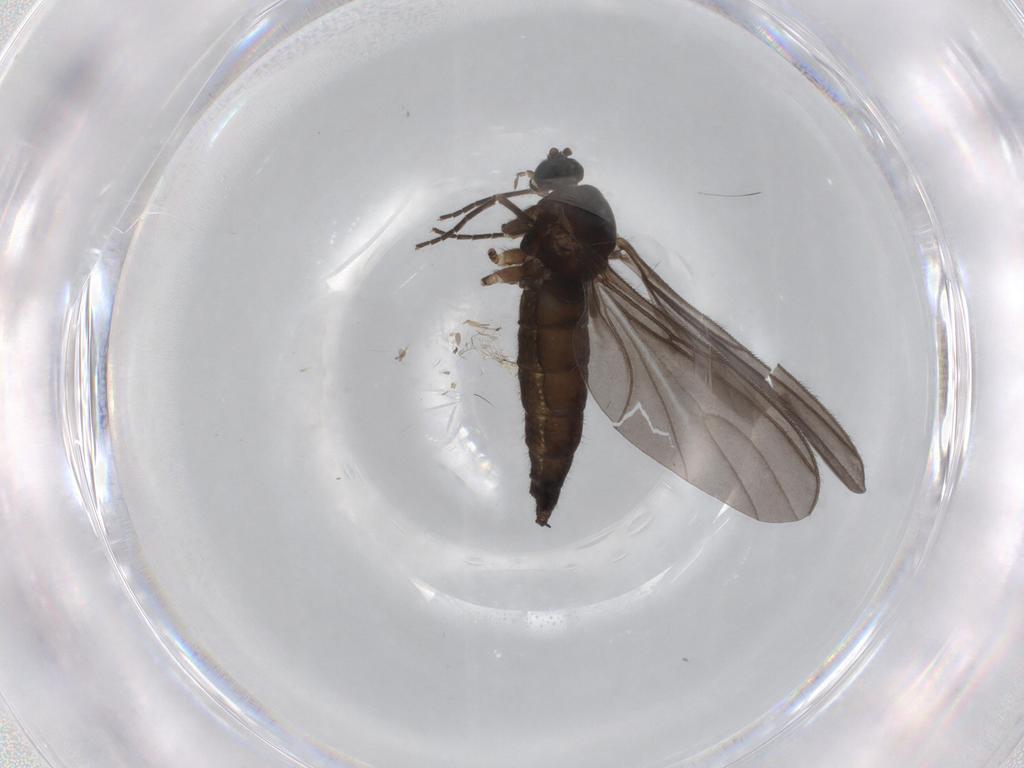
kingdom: Animalia
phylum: Arthropoda
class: Insecta
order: Diptera
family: Sciaridae
